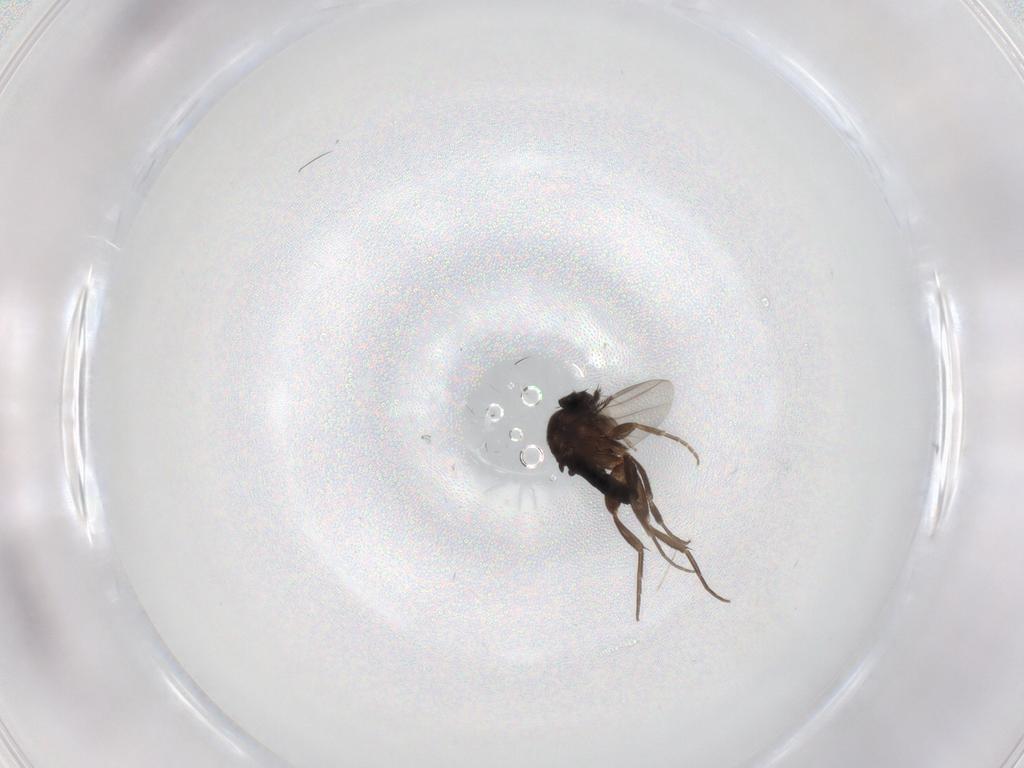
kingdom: Animalia
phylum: Arthropoda
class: Insecta
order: Diptera
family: Phoridae
